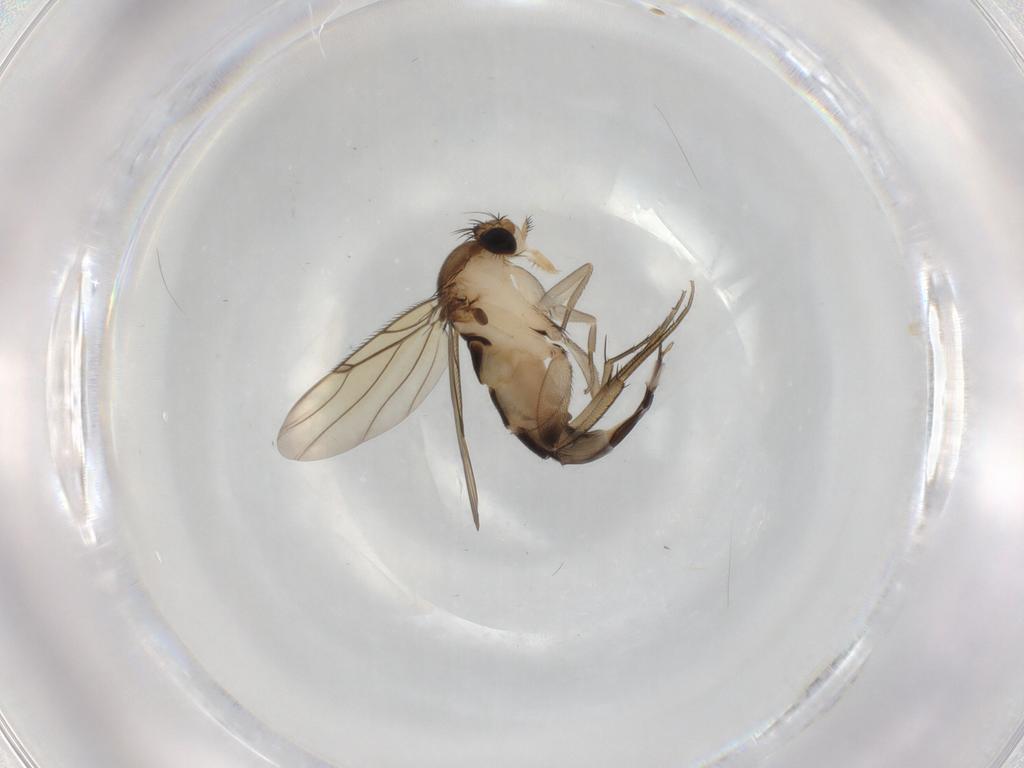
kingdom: Animalia
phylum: Arthropoda
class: Insecta
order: Diptera
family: Phoridae
